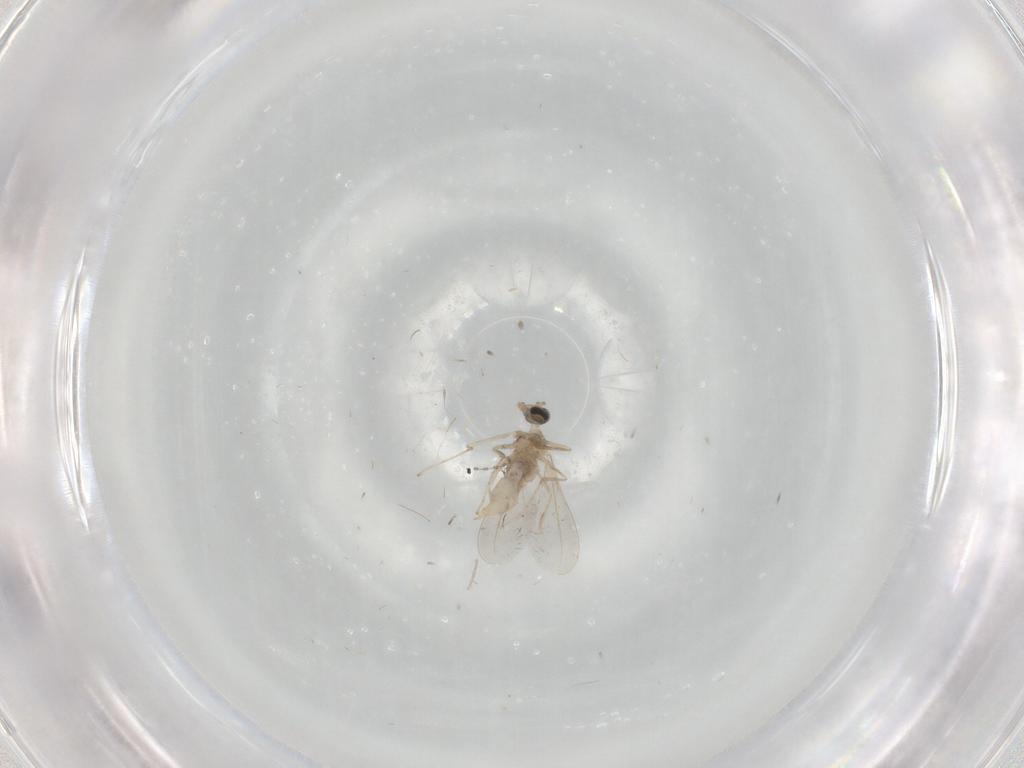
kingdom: Animalia
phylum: Arthropoda
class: Insecta
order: Diptera
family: Cecidomyiidae
